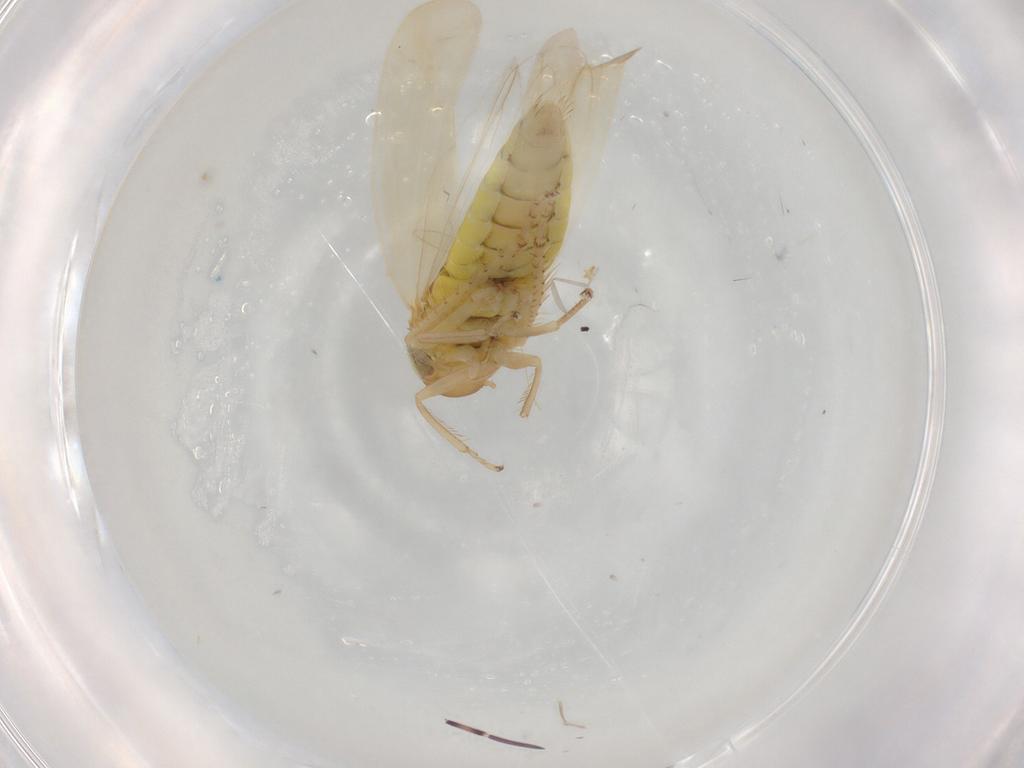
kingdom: Animalia
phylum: Arthropoda
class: Insecta
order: Hemiptera
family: Cicadellidae
